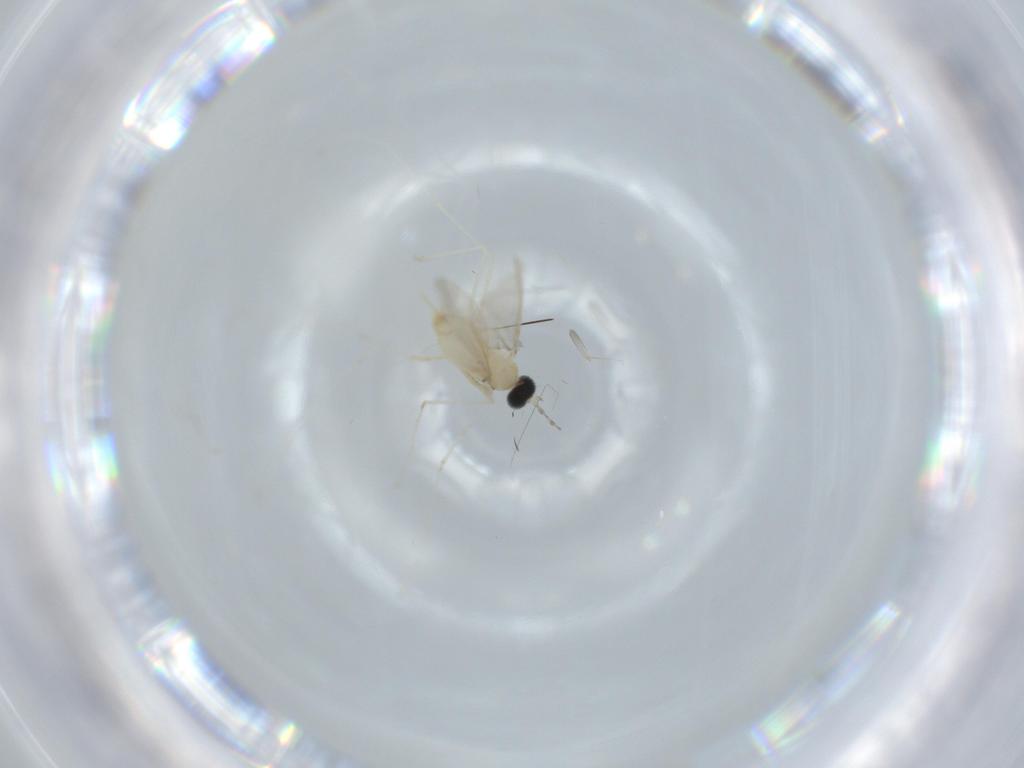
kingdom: Animalia
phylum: Arthropoda
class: Insecta
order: Diptera
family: Cecidomyiidae
